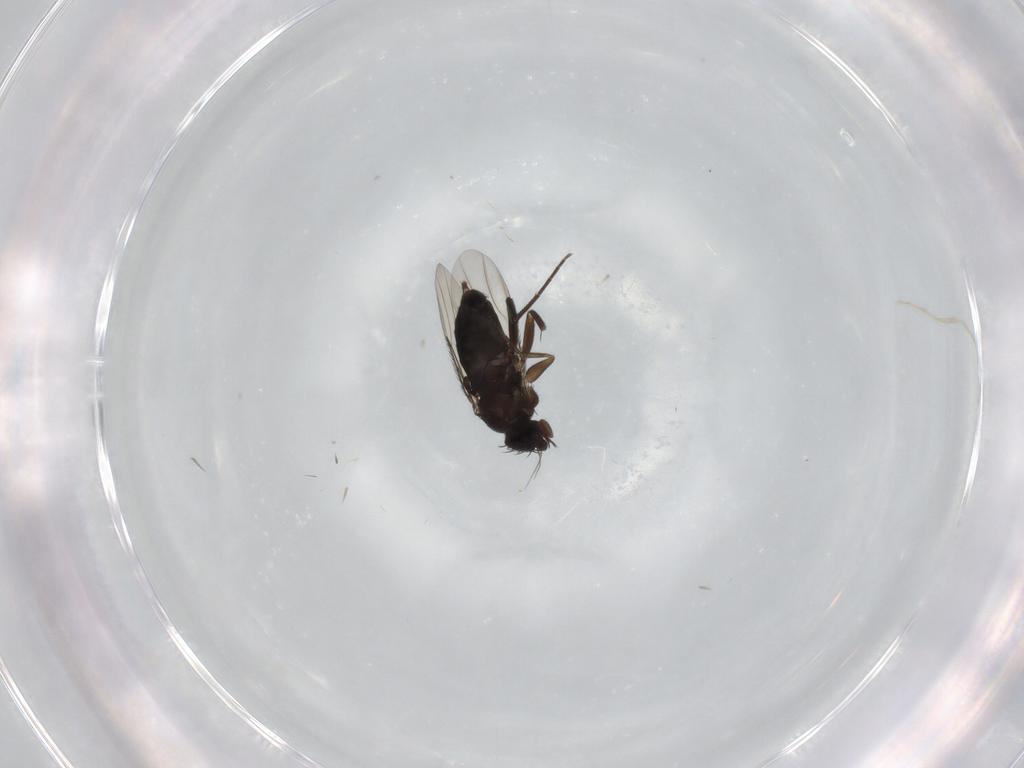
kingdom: Animalia
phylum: Arthropoda
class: Insecta
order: Diptera
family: Phoridae
